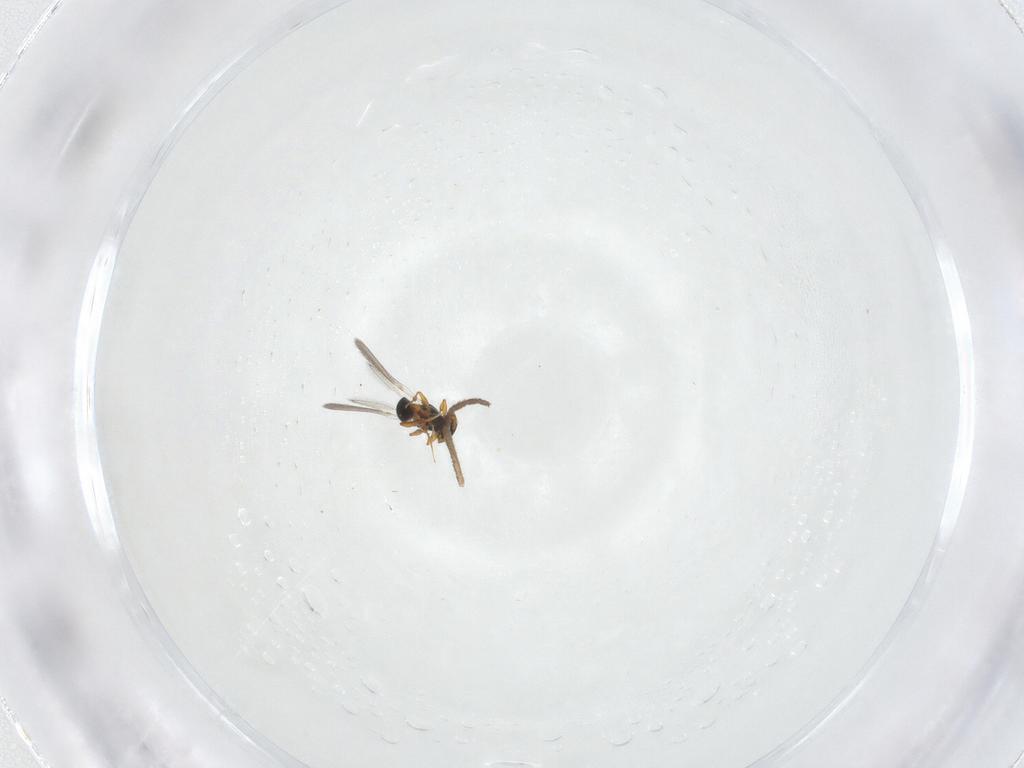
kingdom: Animalia
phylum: Arthropoda
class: Insecta
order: Hymenoptera
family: Platygastridae
